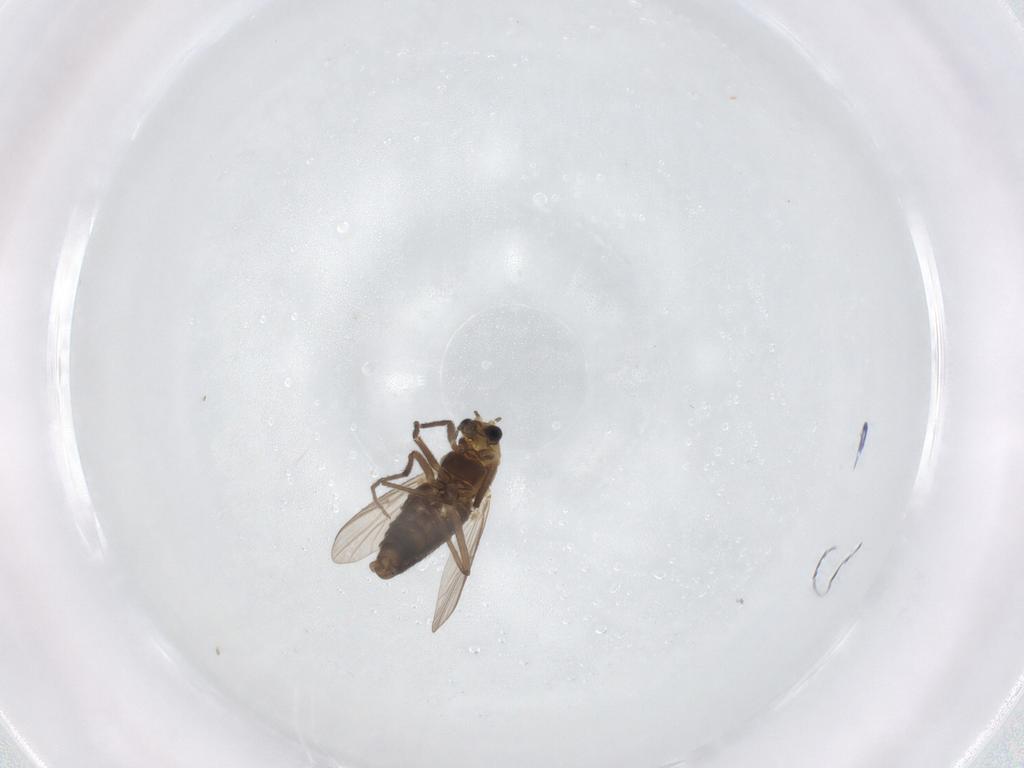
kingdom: Animalia
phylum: Arthropoda
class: Insecta
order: Diptera
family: Chironomidae
